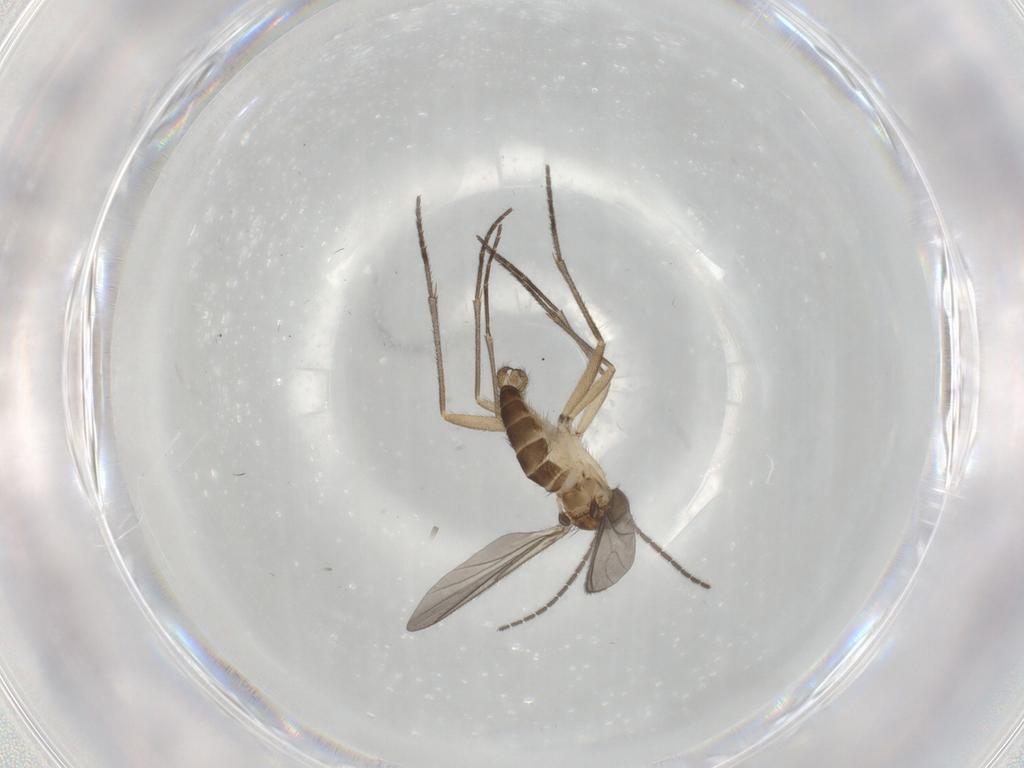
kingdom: Animalia
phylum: Arthropoda
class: Insecta
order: Diptera
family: Sciaridae
